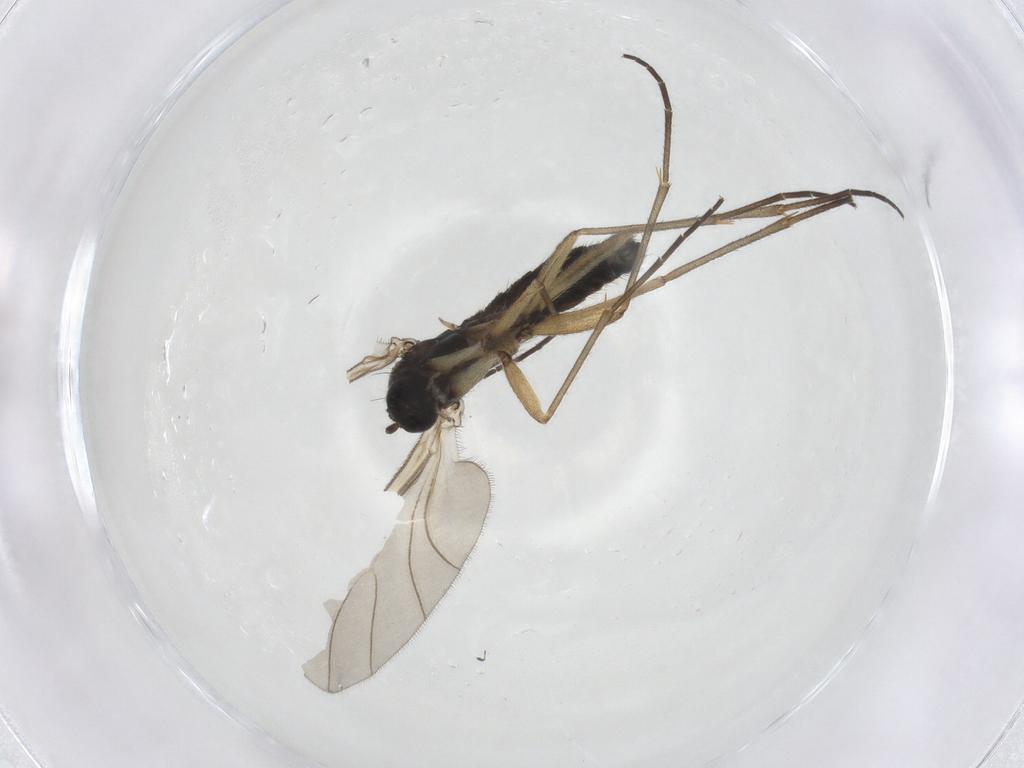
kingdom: Animalia
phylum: Arthropoda
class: Insecta
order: Diptera
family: Sciaridae
